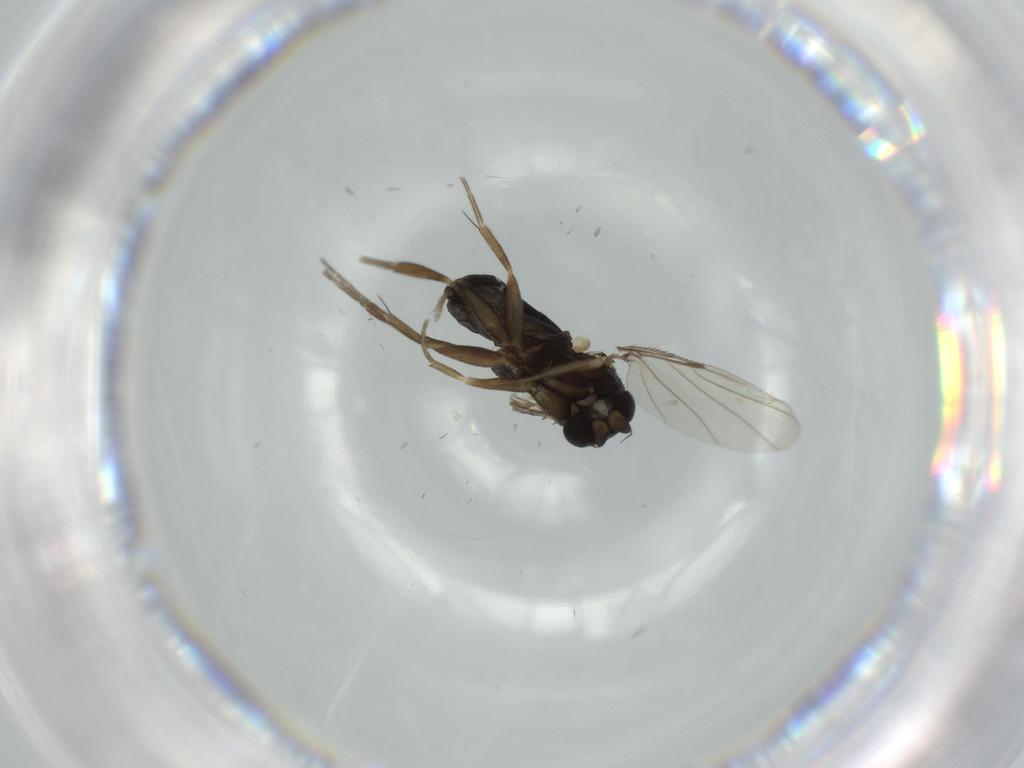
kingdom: Animalia
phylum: Arthropoda
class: Insecta
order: Diptera
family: Phoridae
